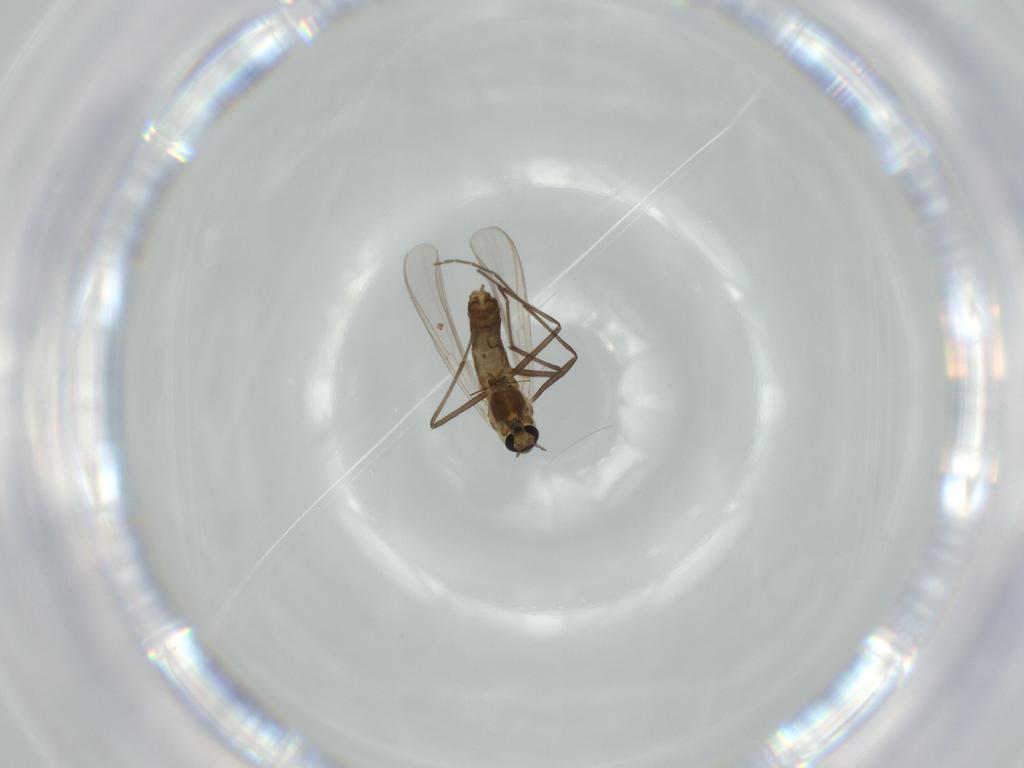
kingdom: Animalia
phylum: Arthropoda
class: Insecta
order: Diptera
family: Chironomidae
